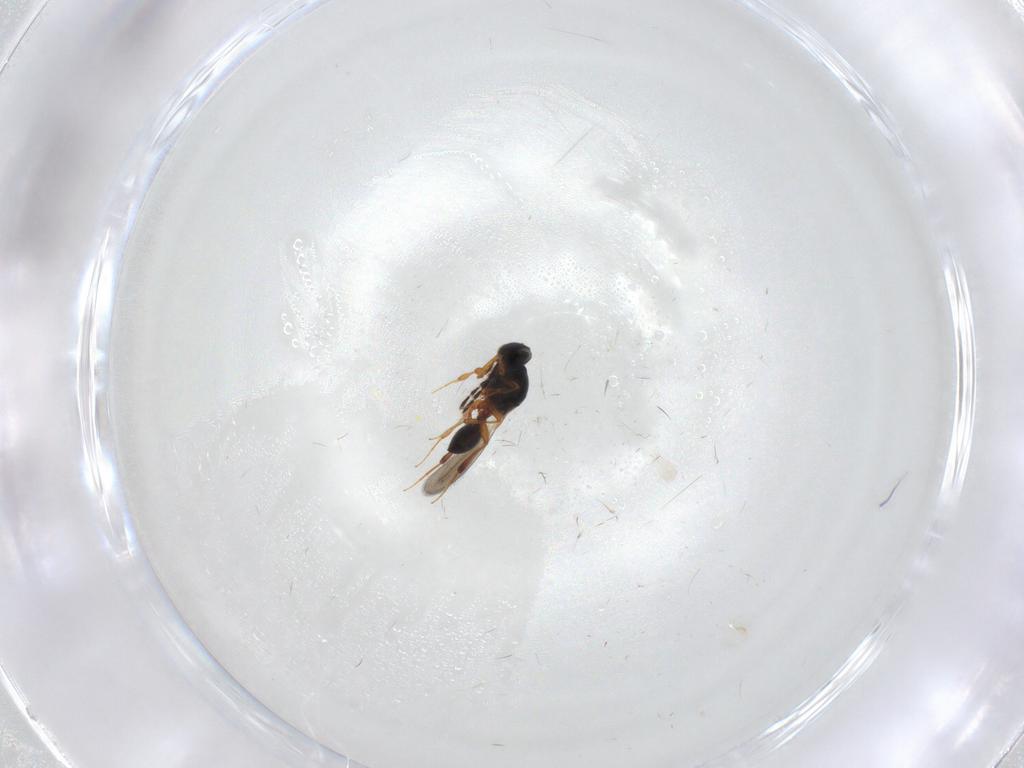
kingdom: Animalia
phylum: Arthropoda
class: Insecta
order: Hymenoptera
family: Platygastridae
